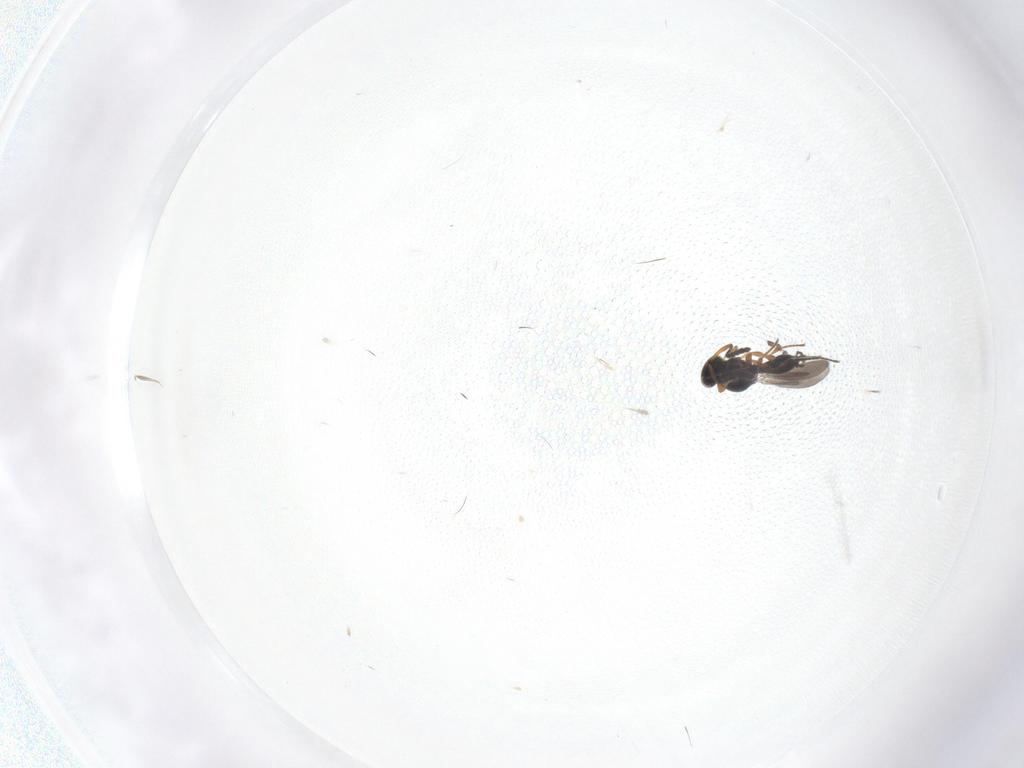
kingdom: Animalia
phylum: Arthropoda
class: Insecta
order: Hymenoptera
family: Platygastridae
